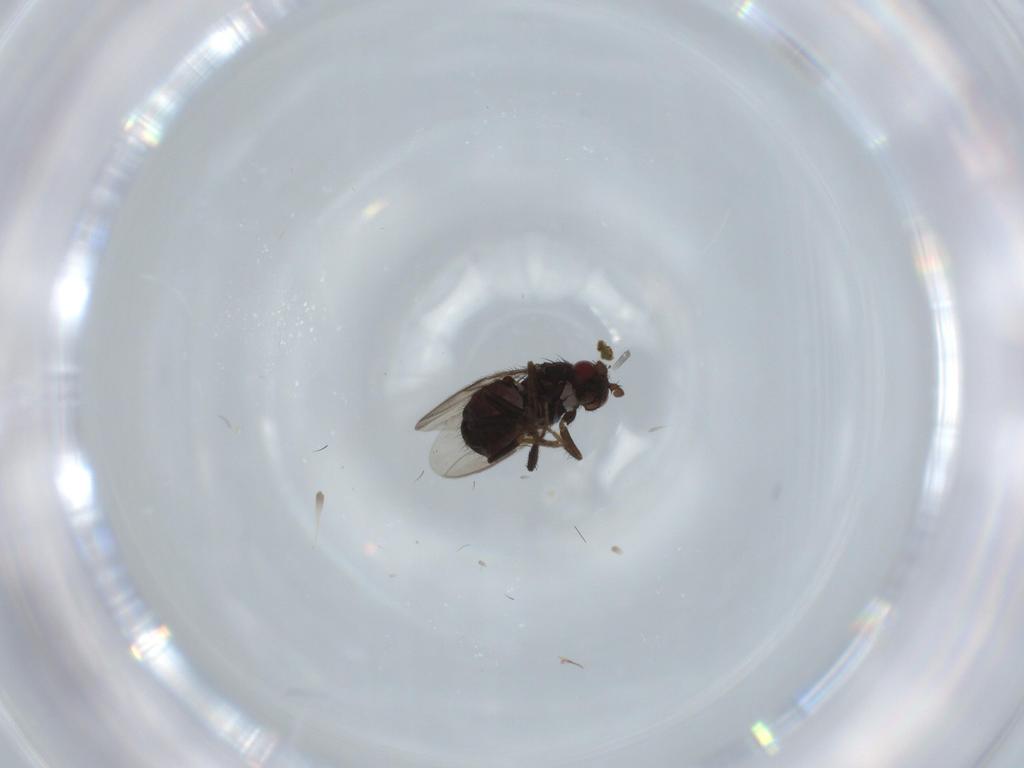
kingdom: Animalia
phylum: Arthropoda
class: Insecta
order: Diptera
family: Sphaeroceridae
